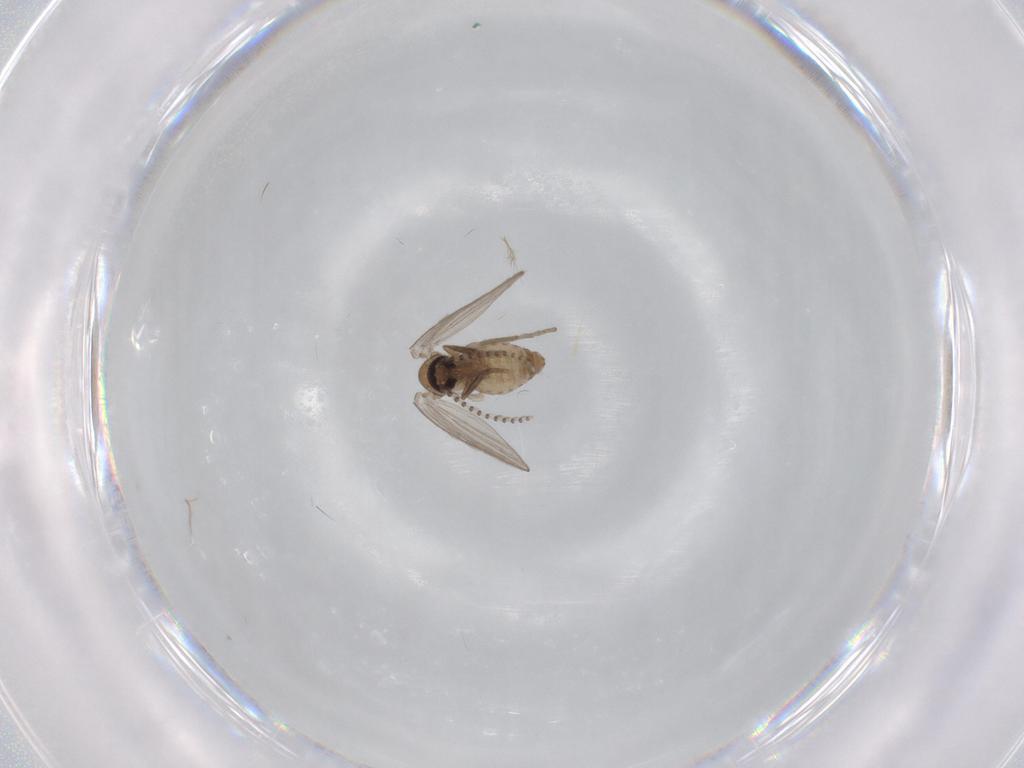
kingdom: Animalia
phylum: Arthropoda
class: Insecta
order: Diptera
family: Psychodidae
